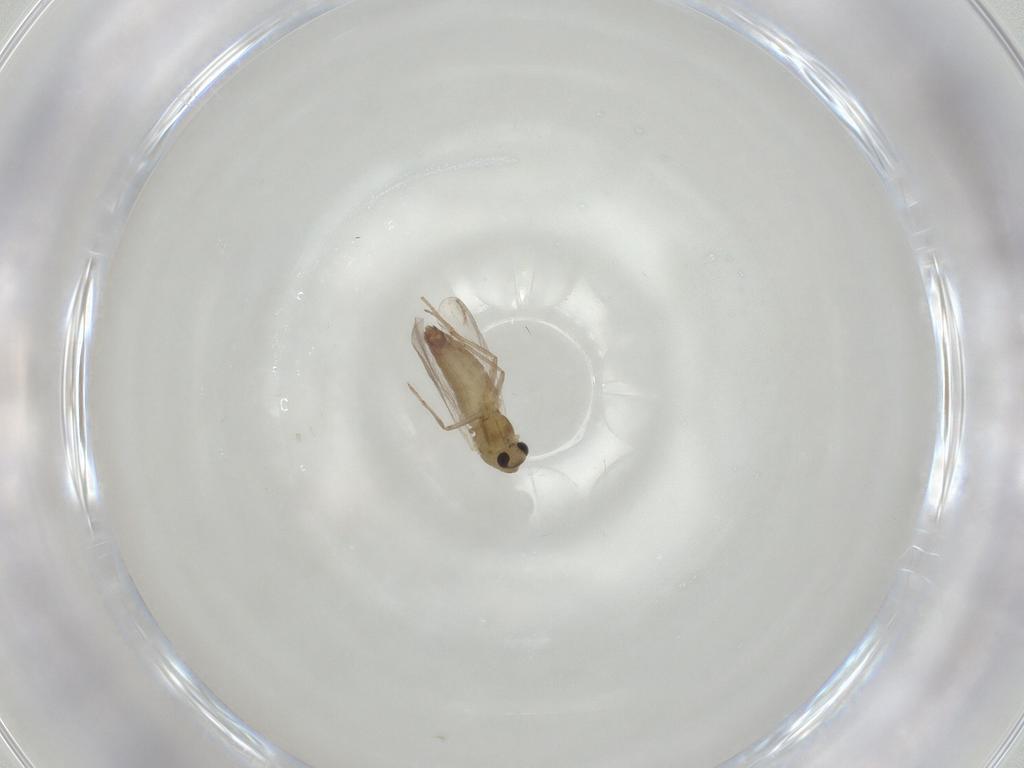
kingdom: Animalia
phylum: Arthropoda
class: Insecta
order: Diptera
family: Chironomidae
